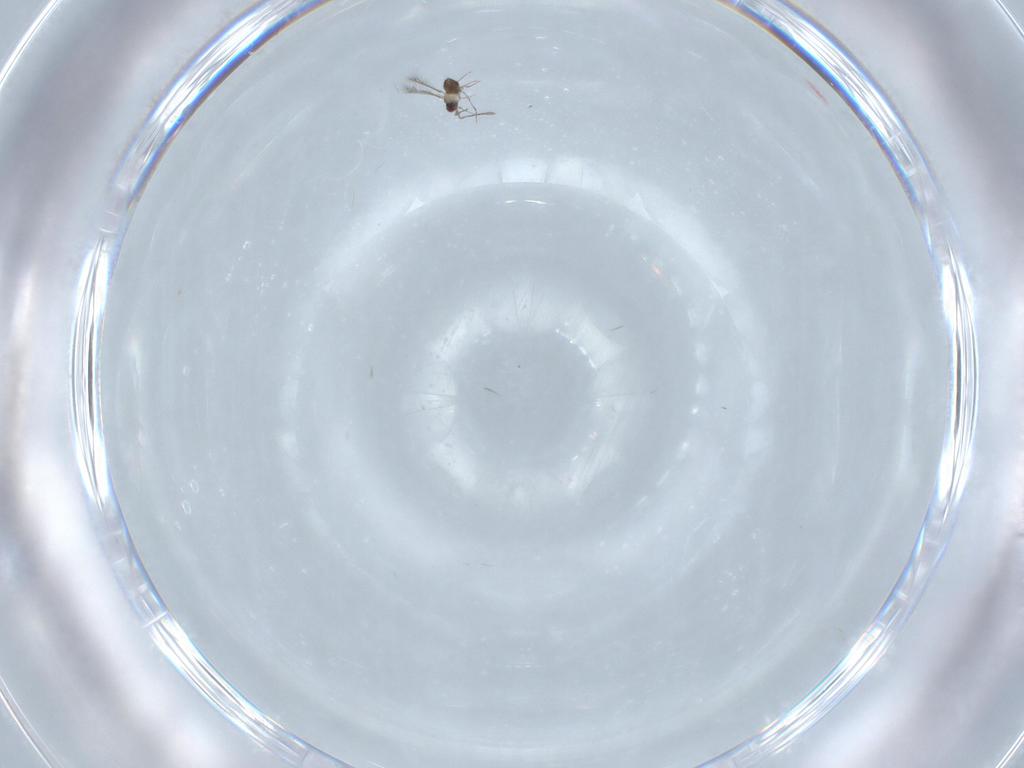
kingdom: Animalia
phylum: Arthropoda
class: Insecta
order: Hymenoptera
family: Mymaridae
